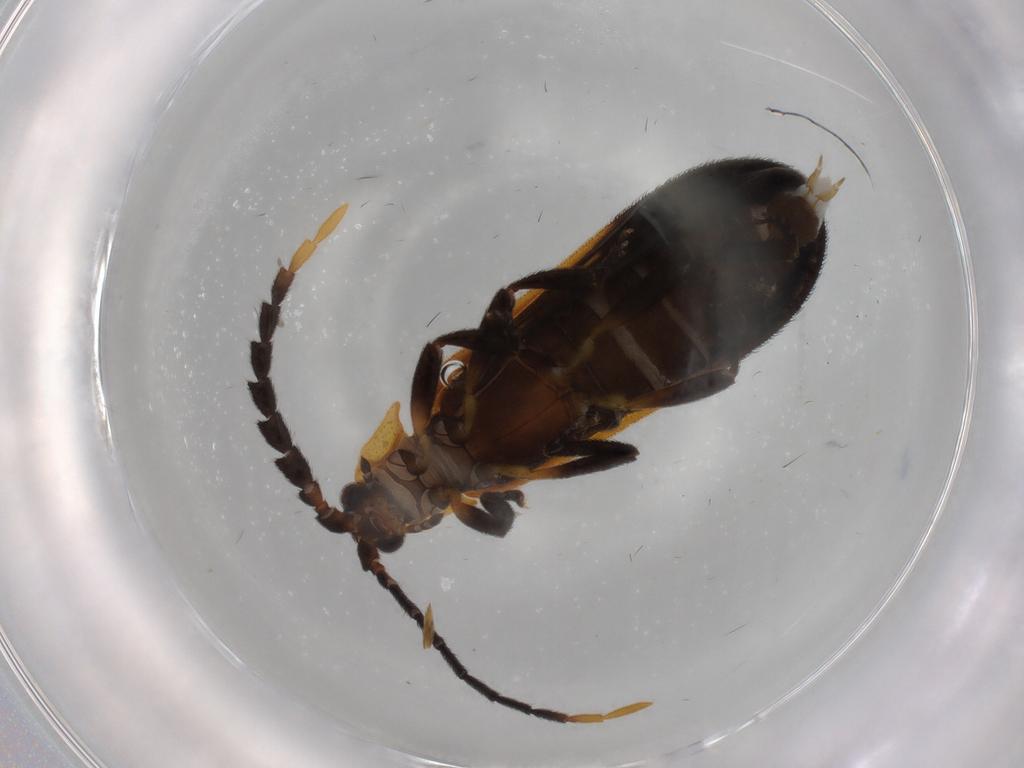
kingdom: Animalia
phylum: Arthropoda
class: Insecta
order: Coleoptera
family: Lycidae
